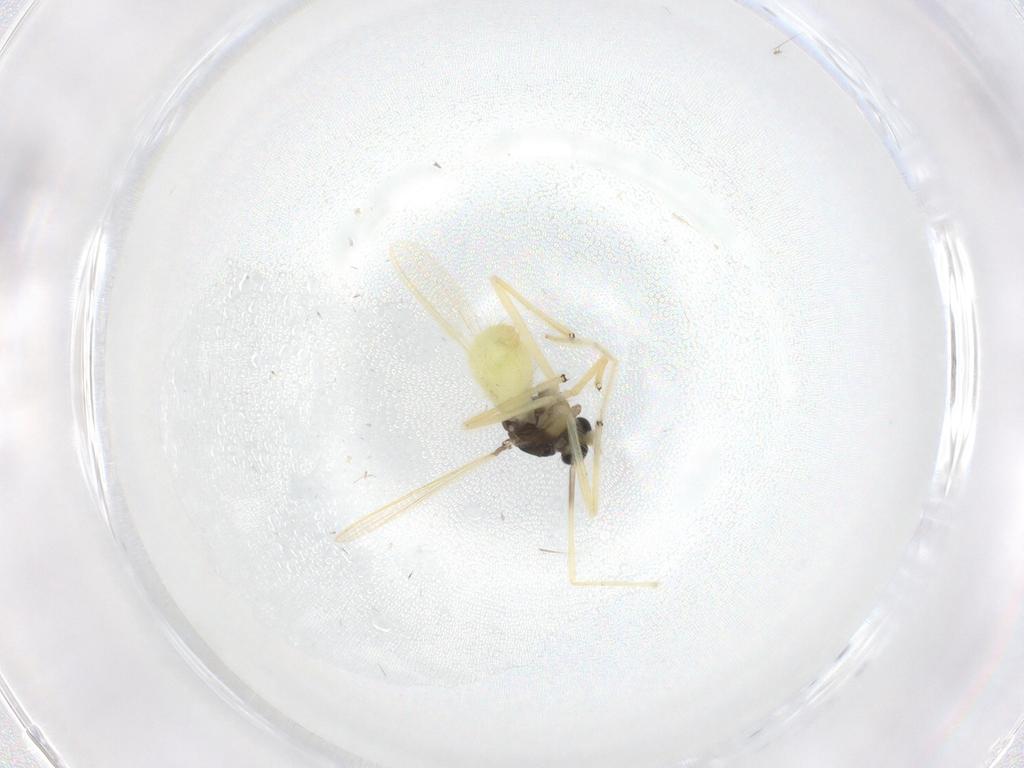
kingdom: Animalia
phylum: Arthropoda
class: Insecta
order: Diptera
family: Chironomidae
